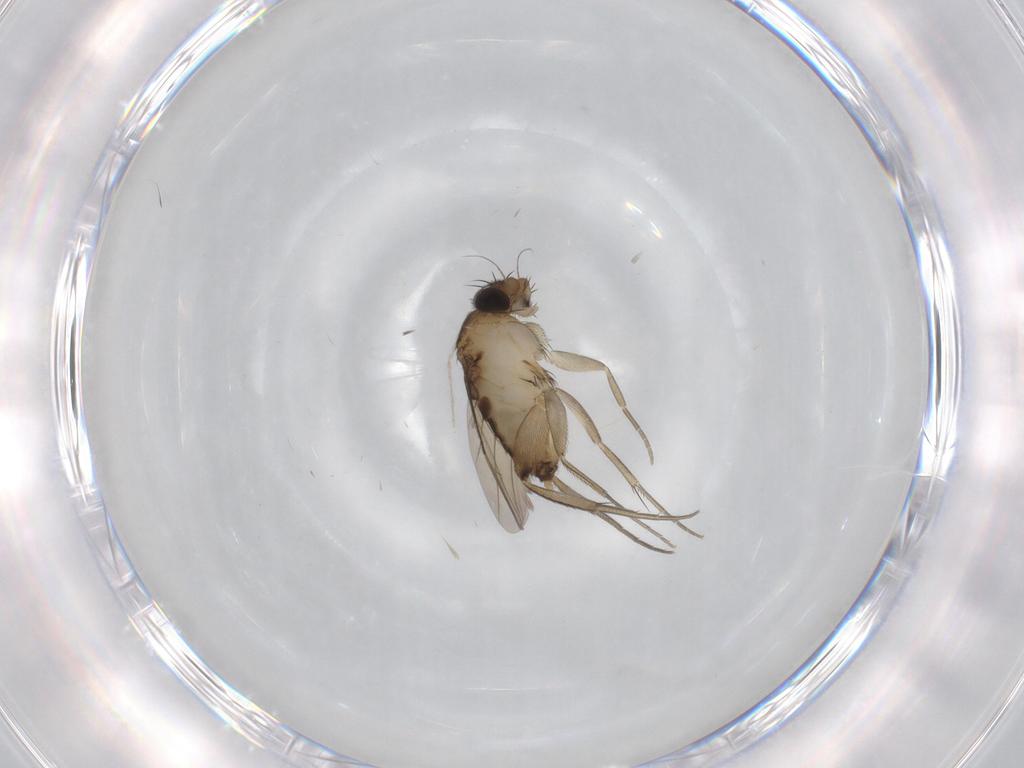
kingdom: Animalia
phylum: Arthropoda
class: Insecta
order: Diptera
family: Phoridae
